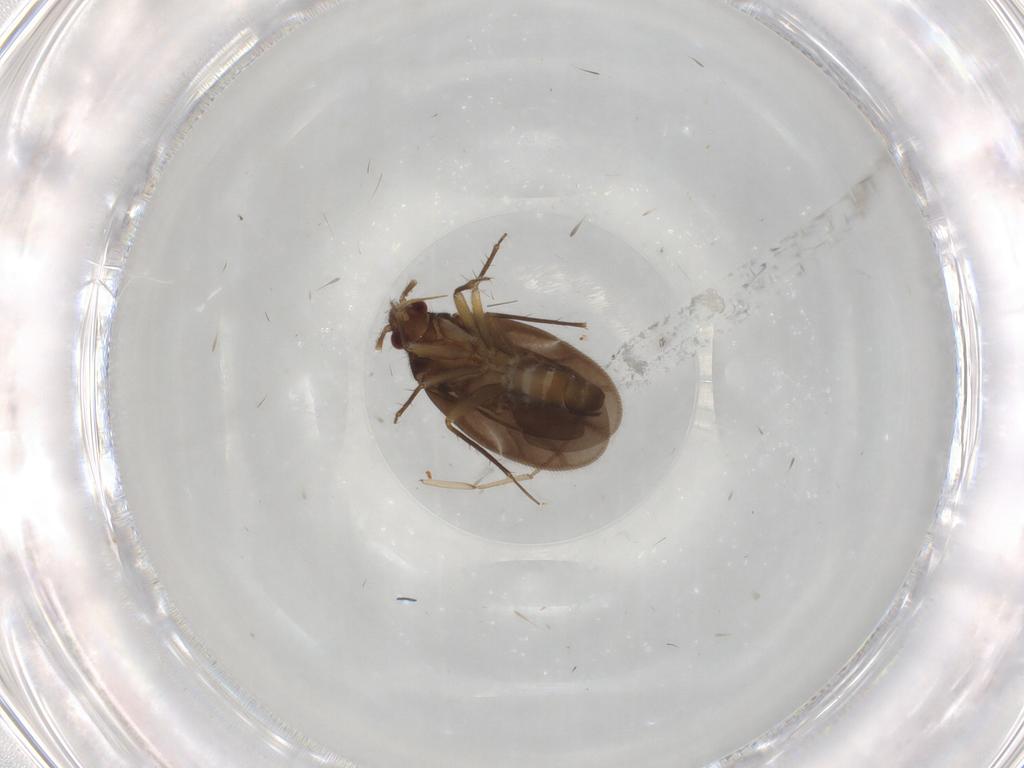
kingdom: Animalia
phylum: Arthropoda
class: Insecta
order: Hemiptera
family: Ceratocombidae
